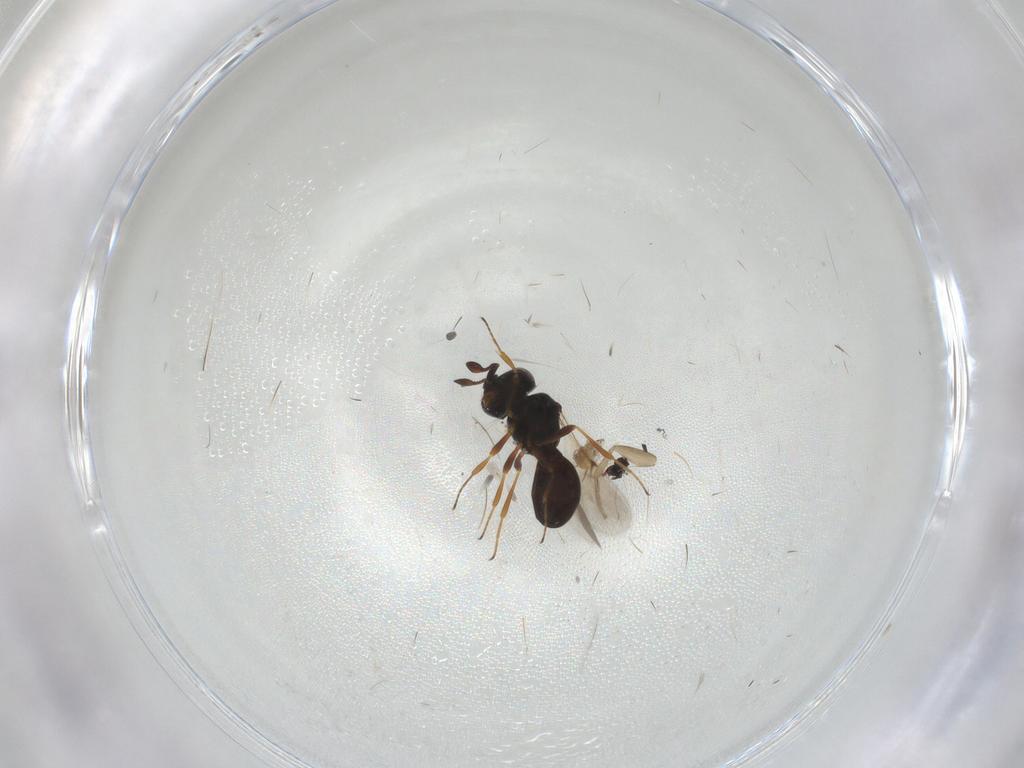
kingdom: Animalia
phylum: Arthropoda
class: Insecta
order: Hymenoptera
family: Scelionidae
